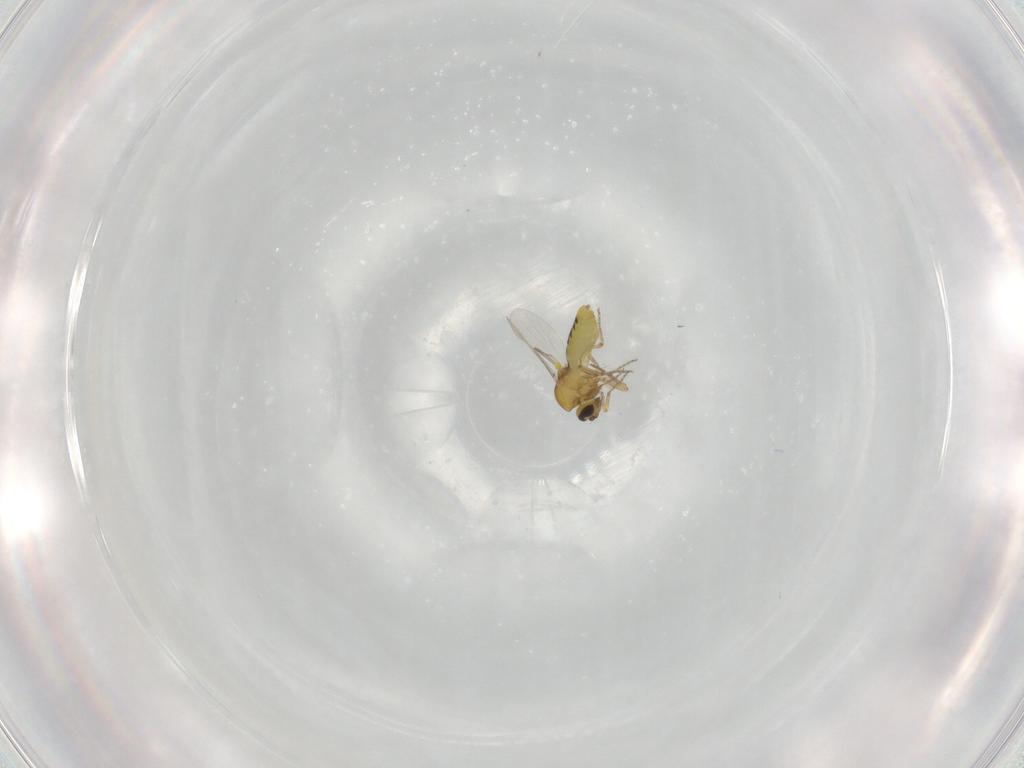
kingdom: Animalia
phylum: Arthropoda
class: Insecta
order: Diptera
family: Ceratopogonidae
